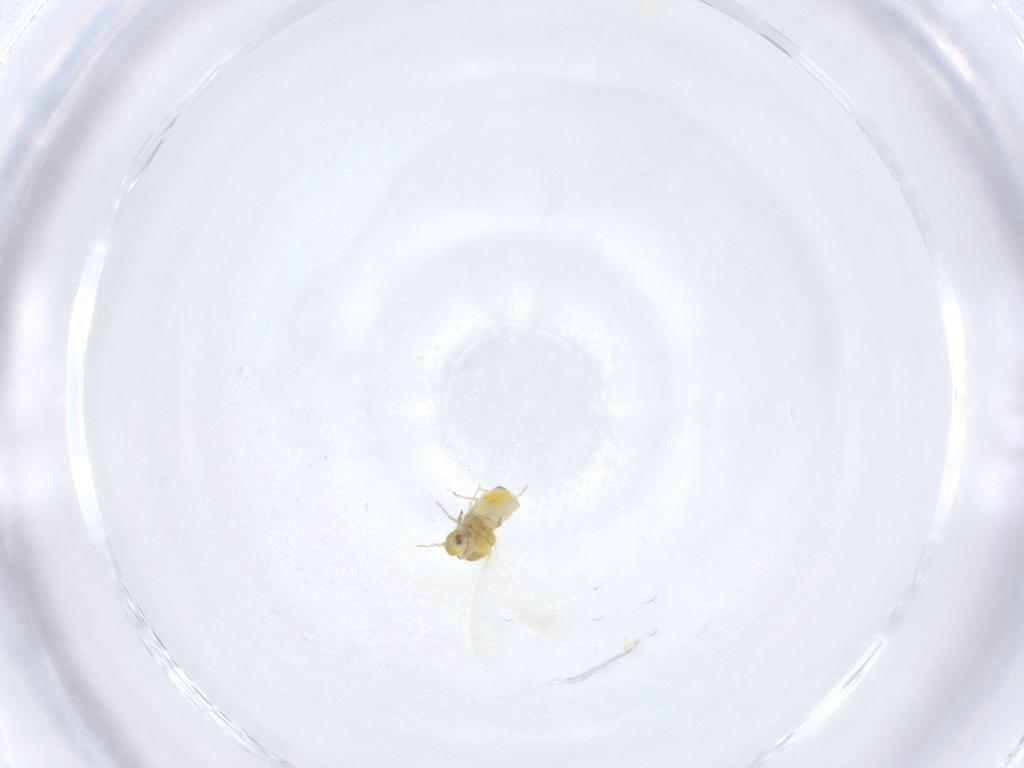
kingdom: Animalia
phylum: Arthropoda
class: Insecta
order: Hemiptera
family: Aleyrodidae
